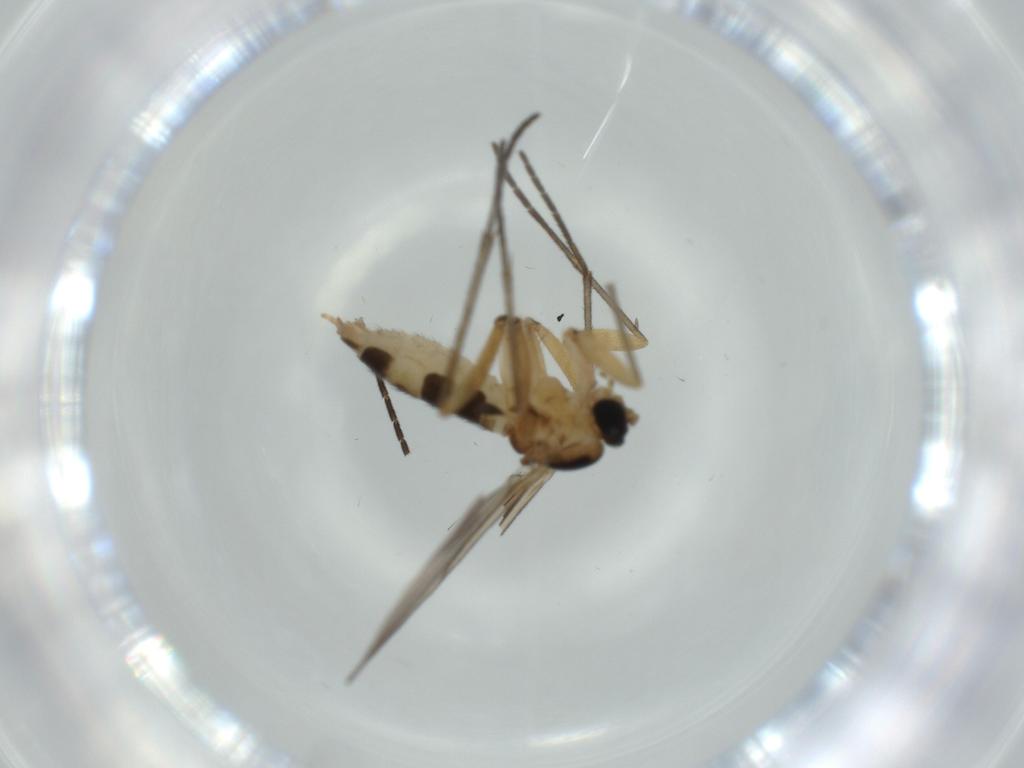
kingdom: Animalia
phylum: Arthropoda
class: Insecta
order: Diptera
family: Sciaridae
